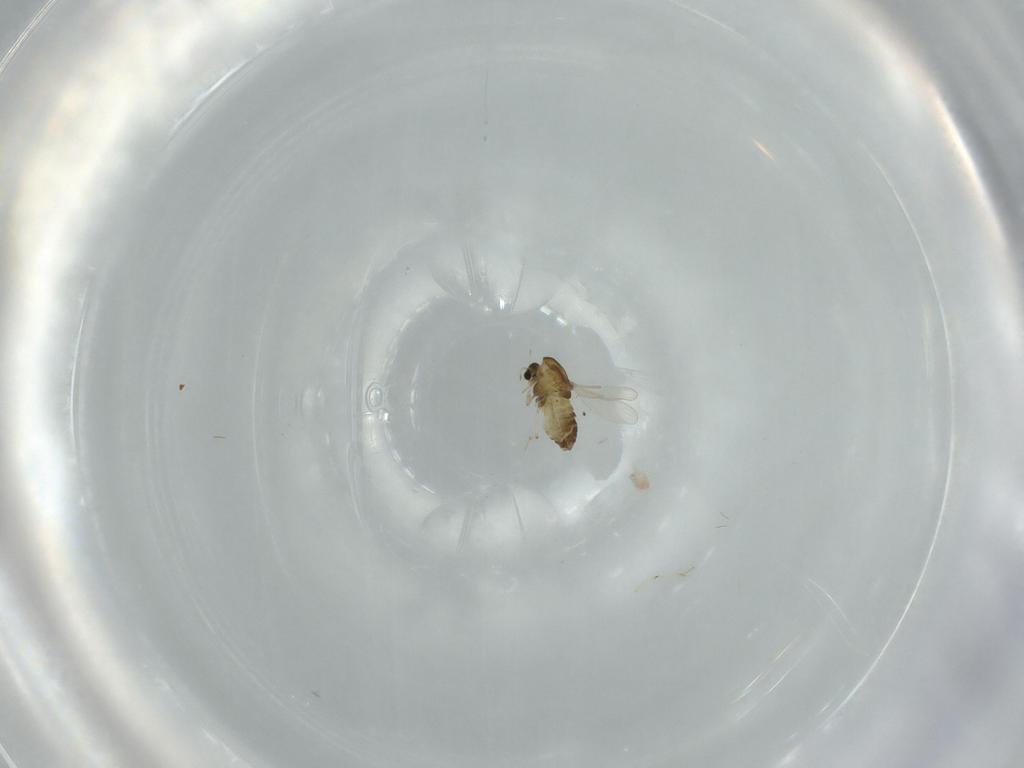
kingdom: Animalia
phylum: Arthropoda
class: Insecta
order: Diptera
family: Chironomidae
